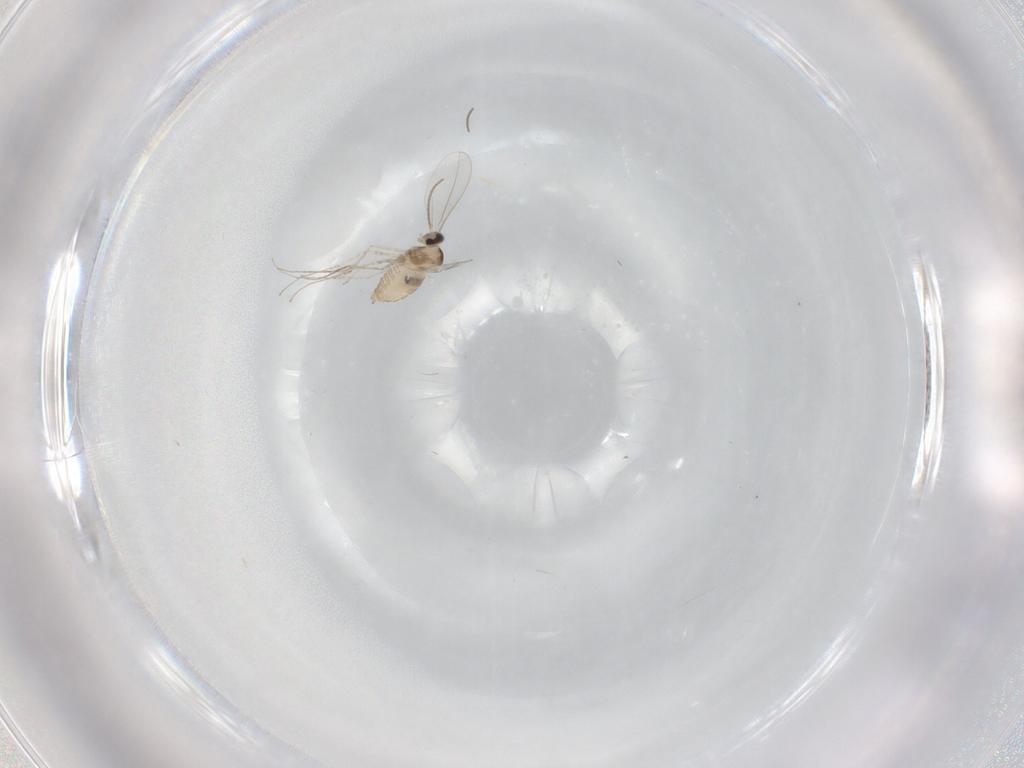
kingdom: Animalia
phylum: Arthropoda
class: Insecta
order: Diptera
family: Cecidomyiidae
